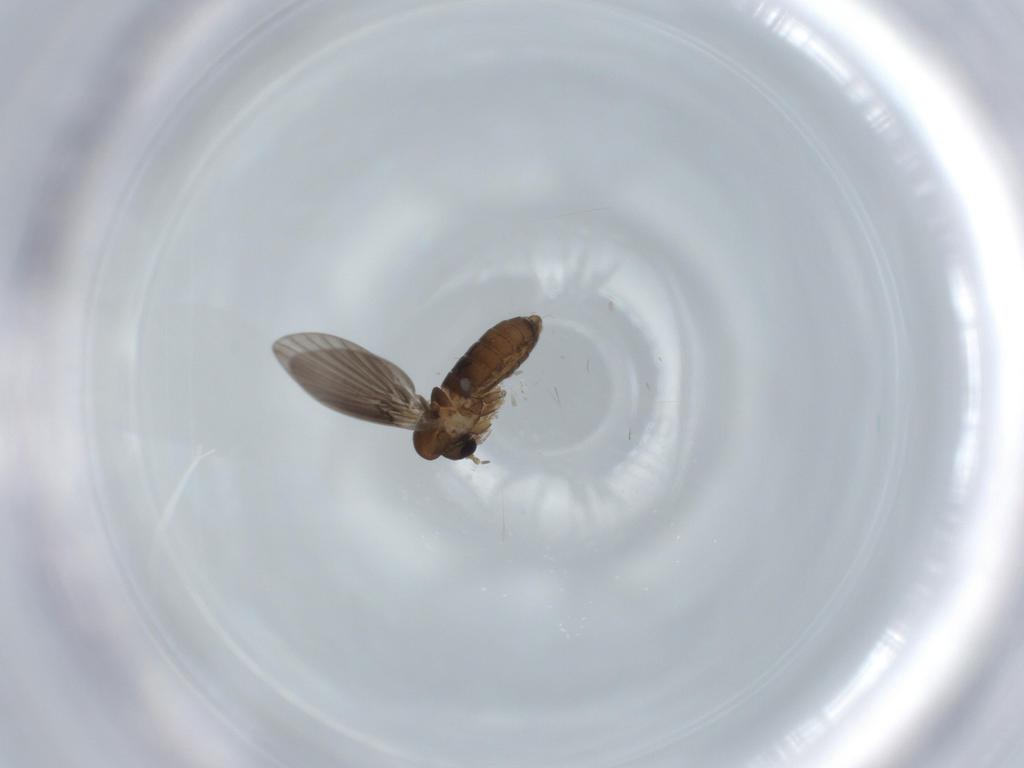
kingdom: Animalia
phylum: Arthropoda
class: Insecta
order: Diptera
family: Psychodidae
